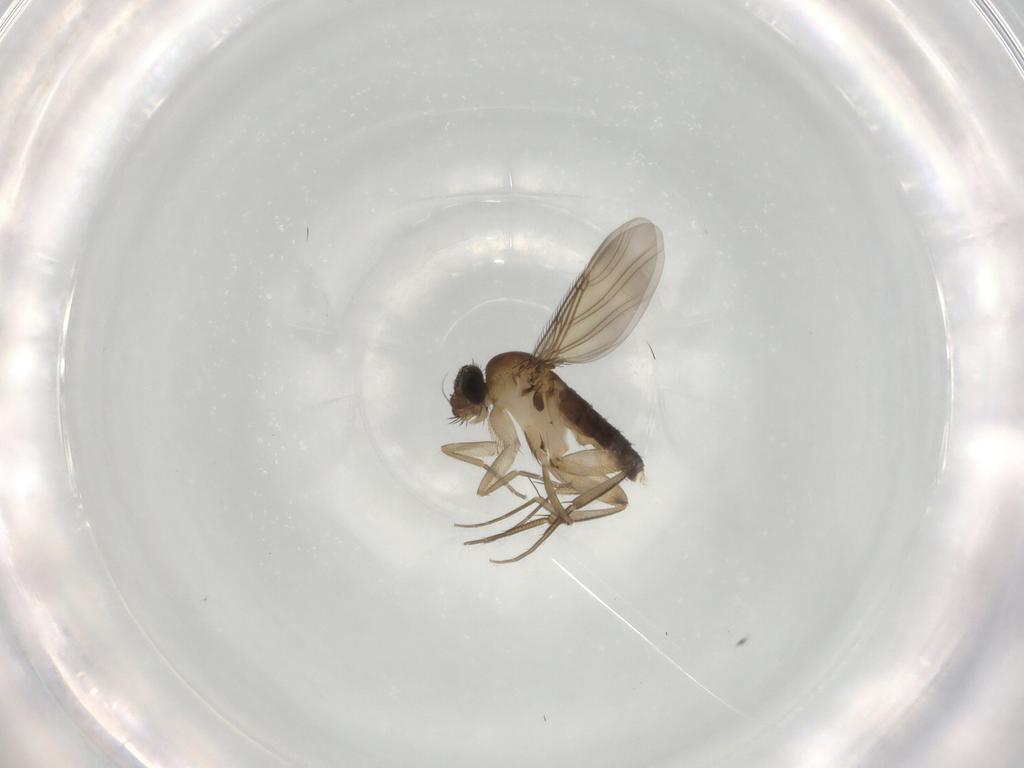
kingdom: Animalia
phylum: Arthropoda
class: Insecta
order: Diptera
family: Phoridae
